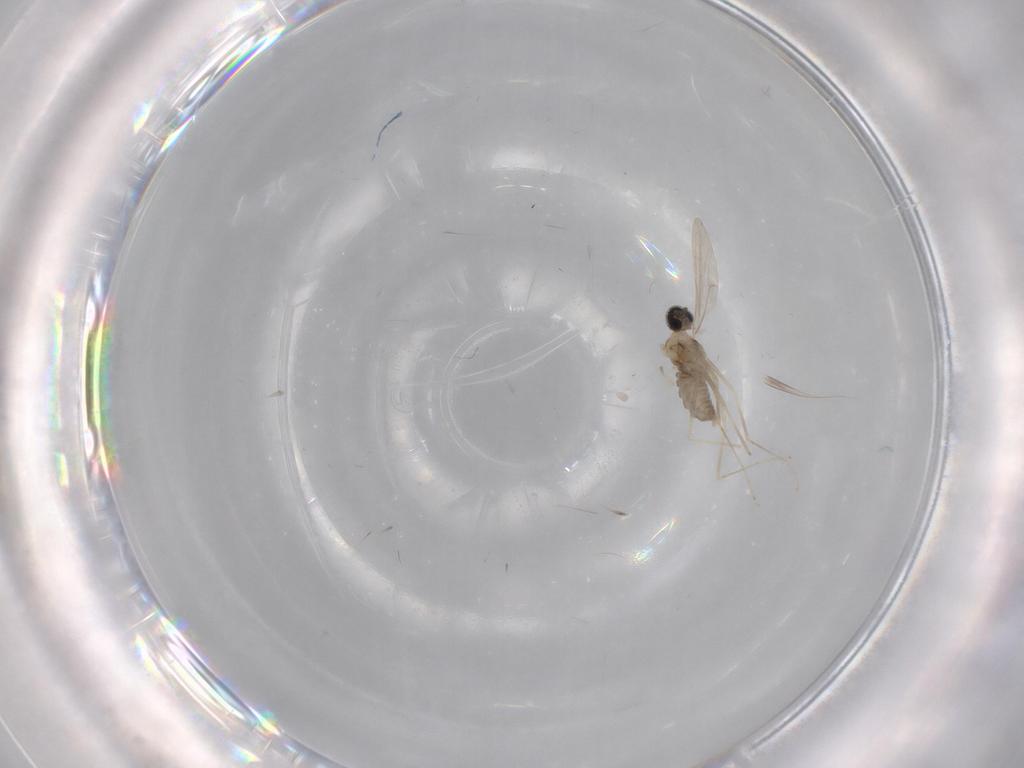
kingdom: Animalia
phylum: Arthropoda
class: Insecta
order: Diptera
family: Cecidomyiidae
